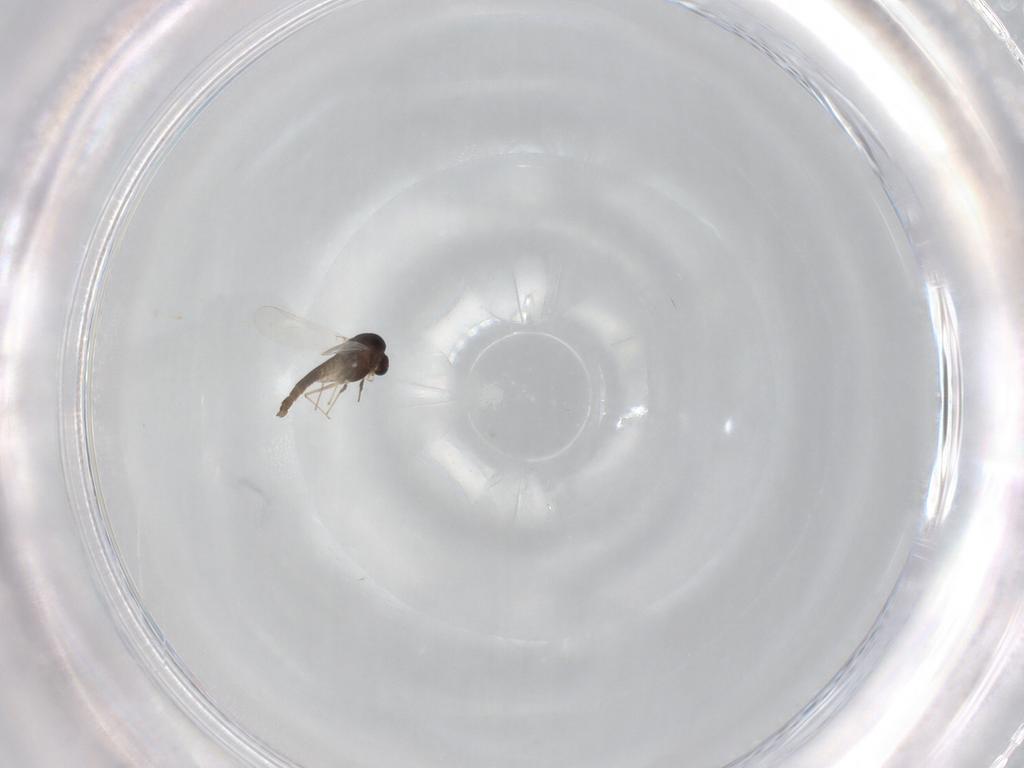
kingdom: Animalia
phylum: Arthropoda
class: Insecta
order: Diptera
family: Chironomidae
